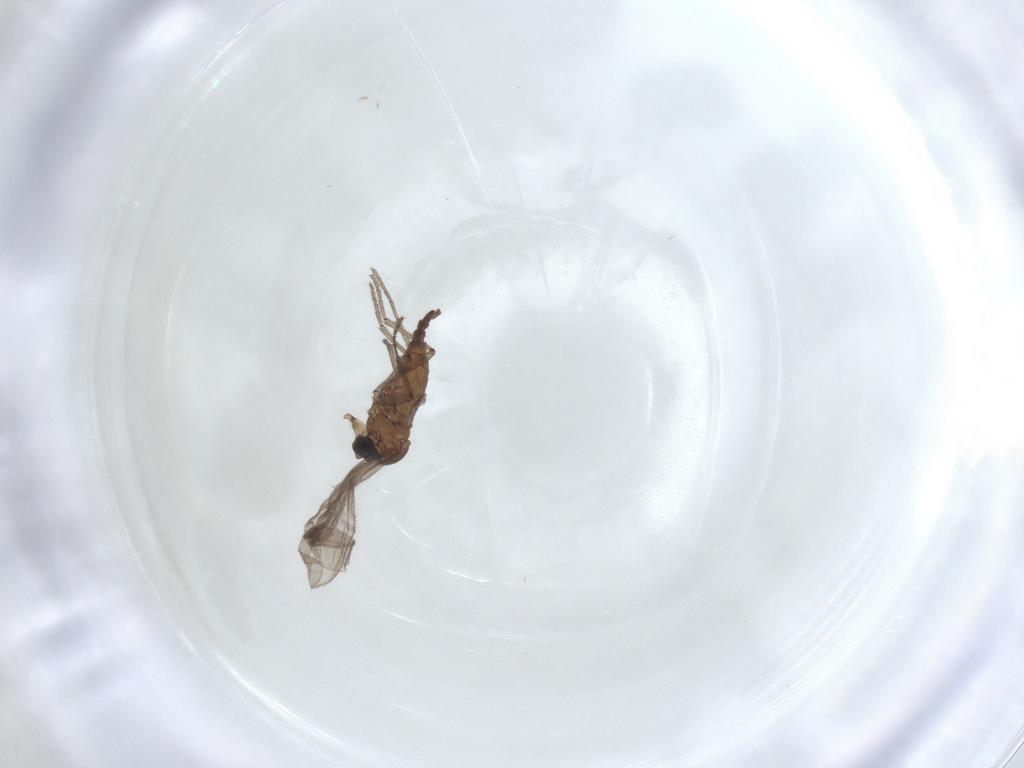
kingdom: Animalia
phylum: Arthropoda
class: Insecta
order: Diptera
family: Sciaridae
